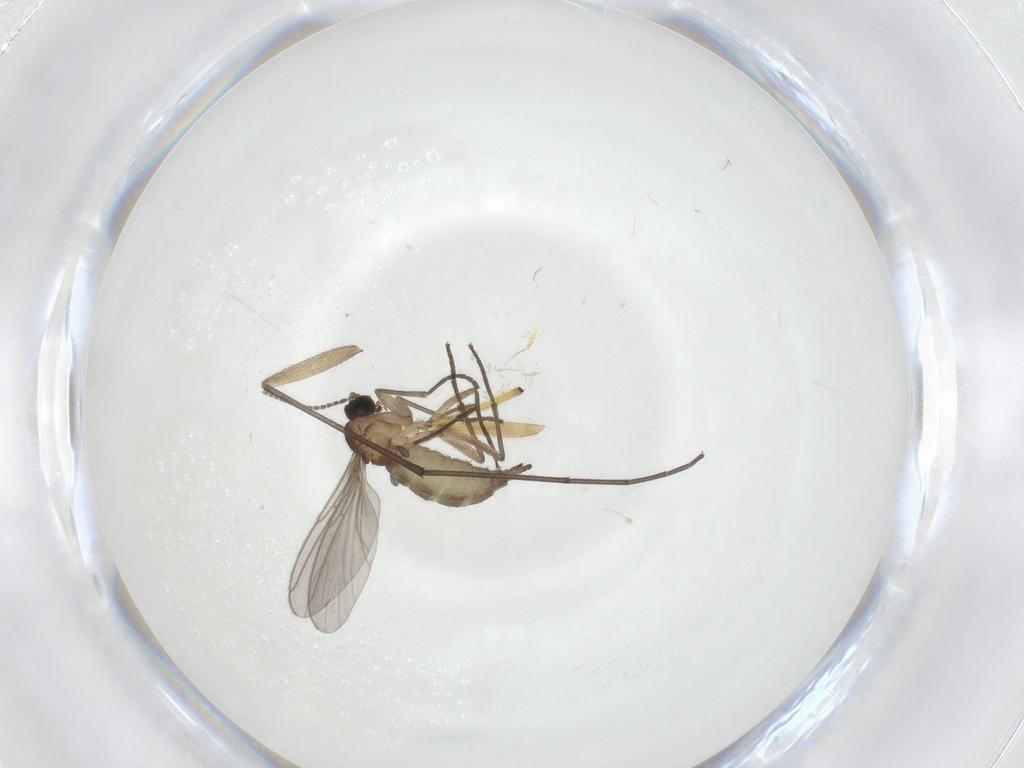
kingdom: Animalia
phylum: Arthropoda
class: Insecta
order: Diptera
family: Sciaridae
